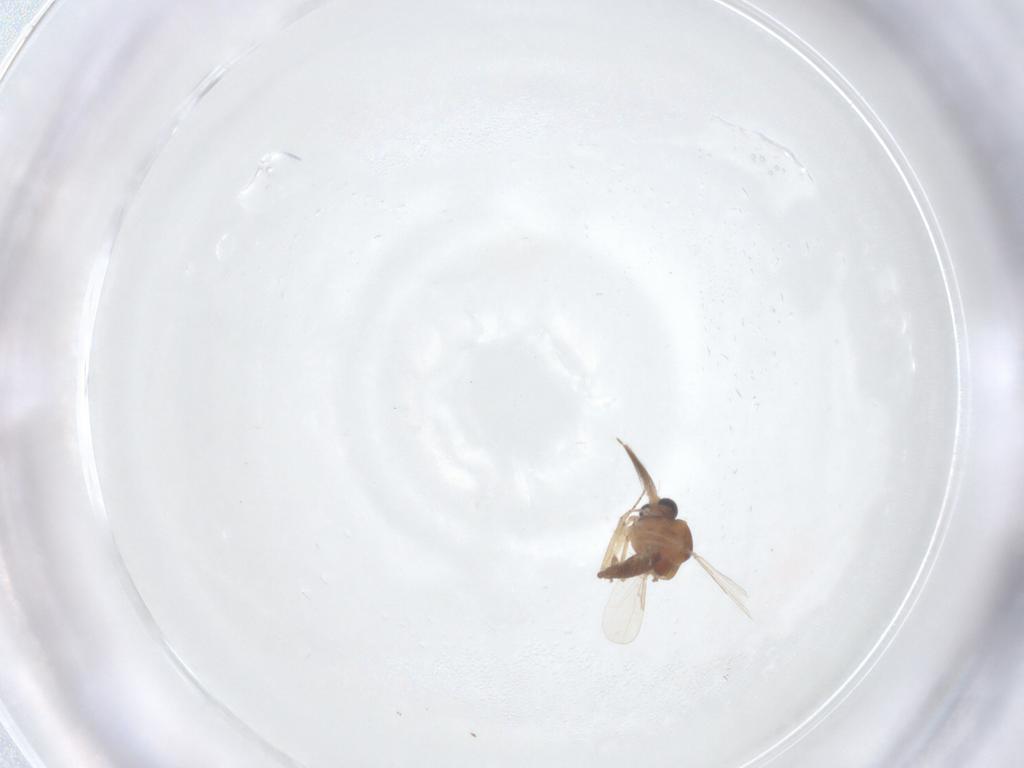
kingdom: Animalia
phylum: Arthropoda
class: Insecta
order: Diptera
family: Ceratopogonidae
